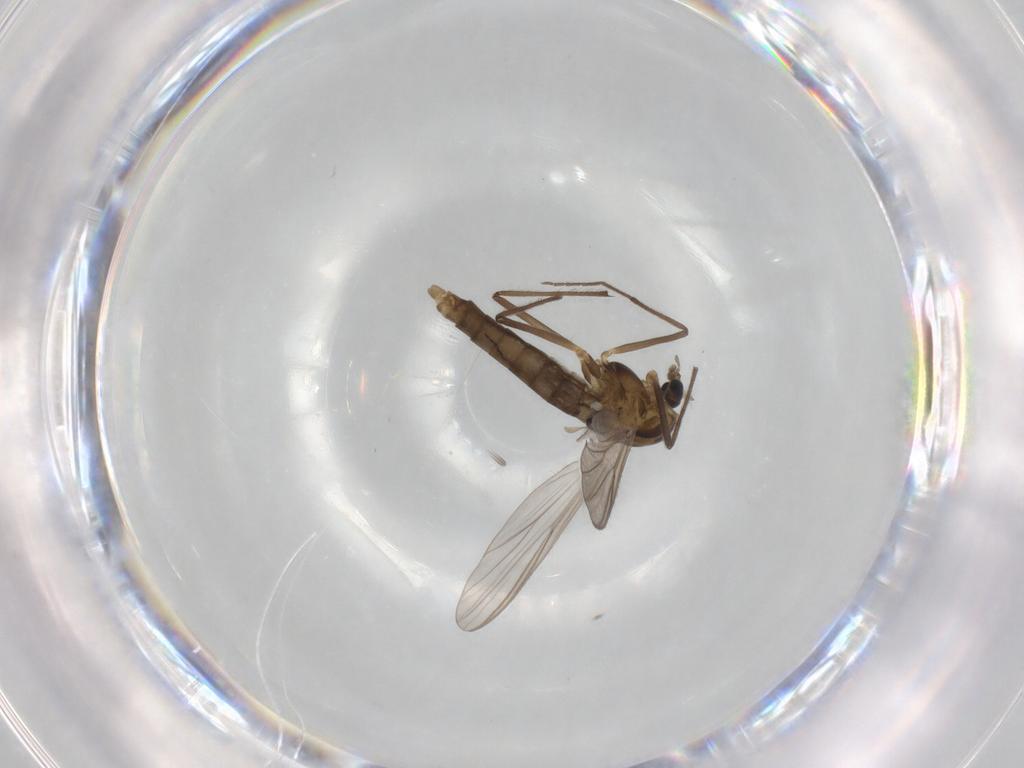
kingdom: Animalia
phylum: Arthropoda
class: Insecta
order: Diptera
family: Chironomidae
